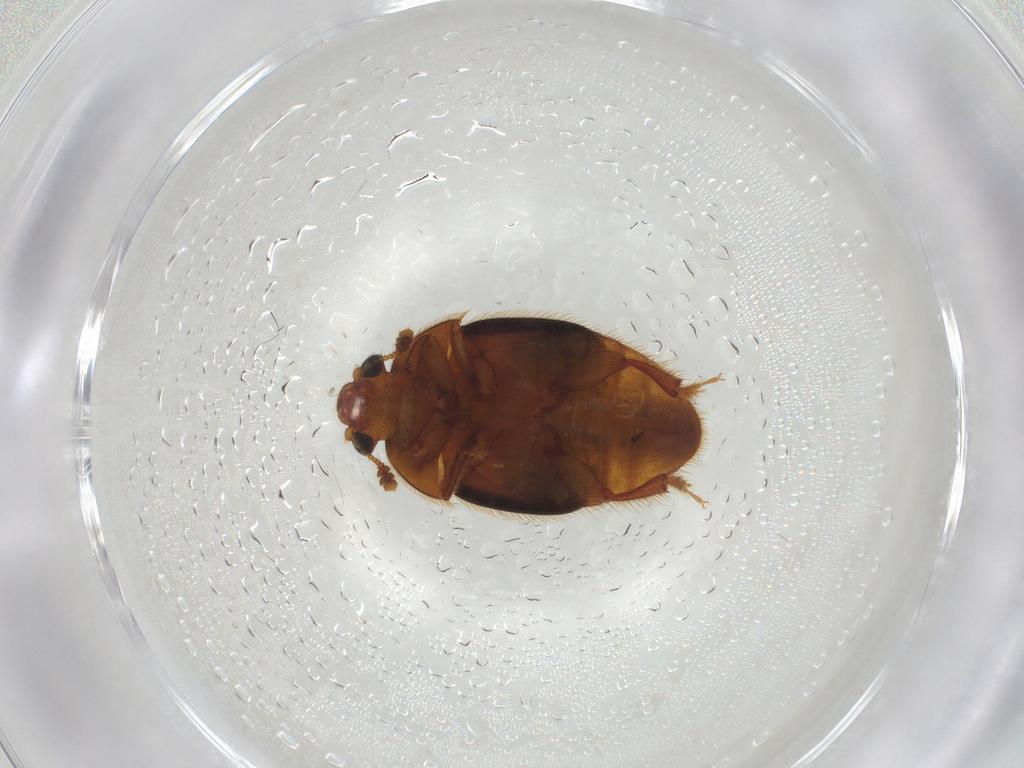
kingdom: Animalia
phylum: Arthropoda
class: Insecta
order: Coleoptera
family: Nitidulidae
